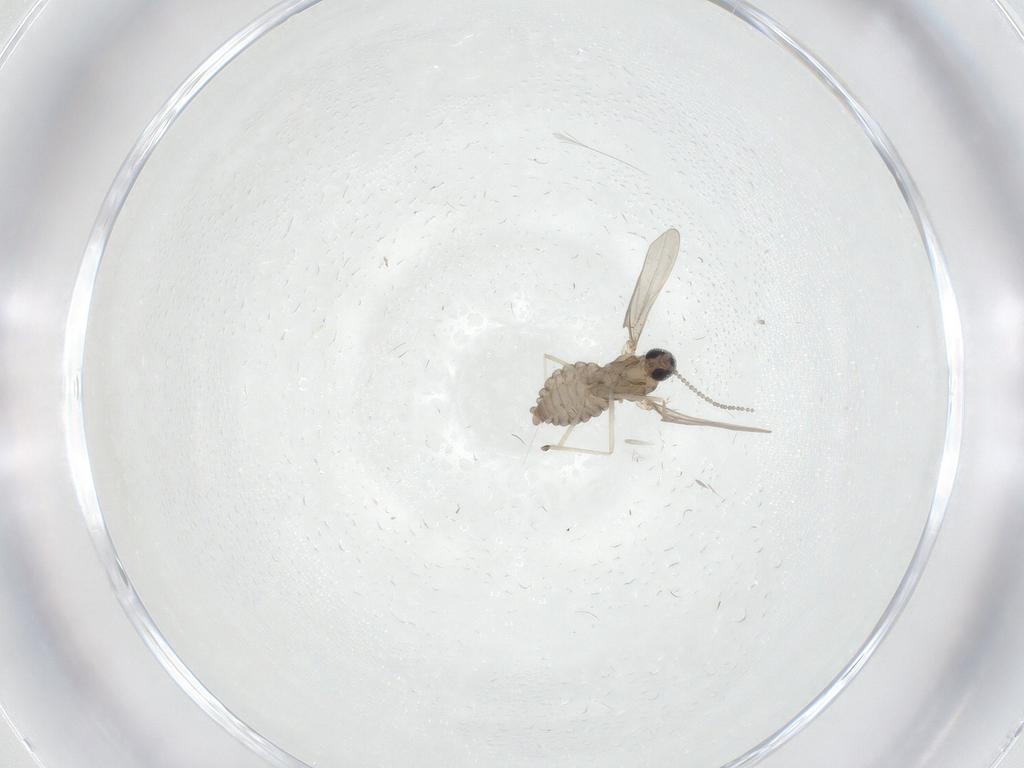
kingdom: Animalia
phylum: Arthropoda
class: Insecta
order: Diptera
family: Cecidomyiidae
